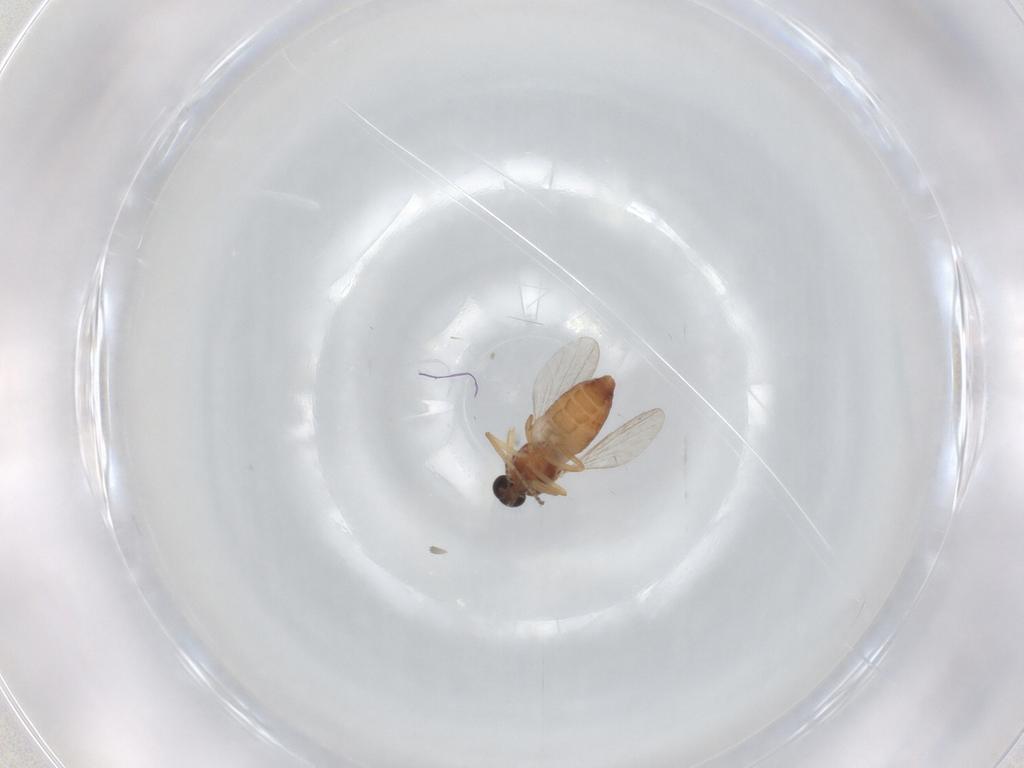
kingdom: Animalia
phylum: Arthropoda
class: Insecta
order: Diptera
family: Ceratopogonidae
